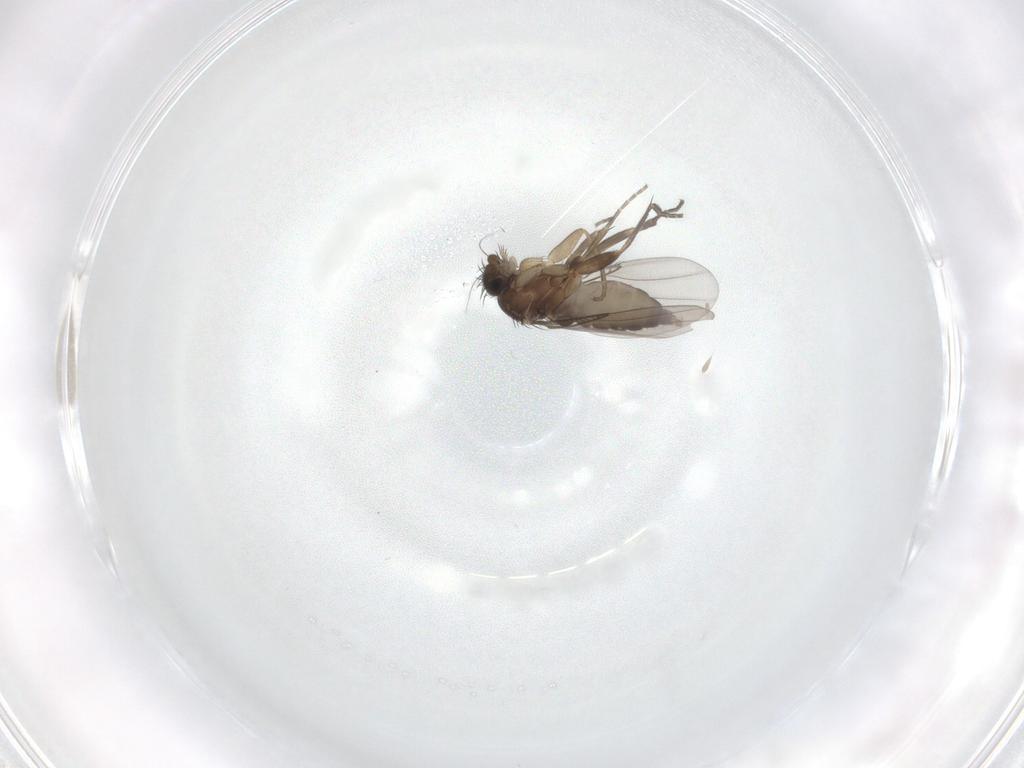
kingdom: Animalia
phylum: Arthropoda
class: Insecta
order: Diptera
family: Phoridae
